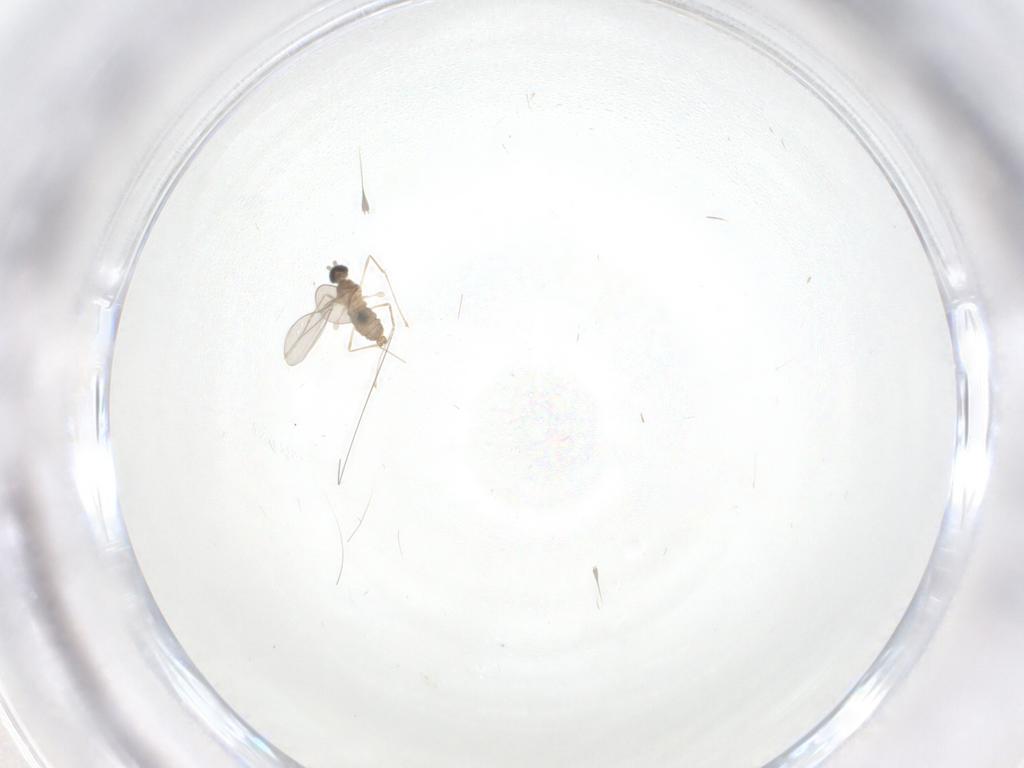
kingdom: Animalia
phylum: Arthropoda
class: Insecta
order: Diptera
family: Cecidomyiidae
